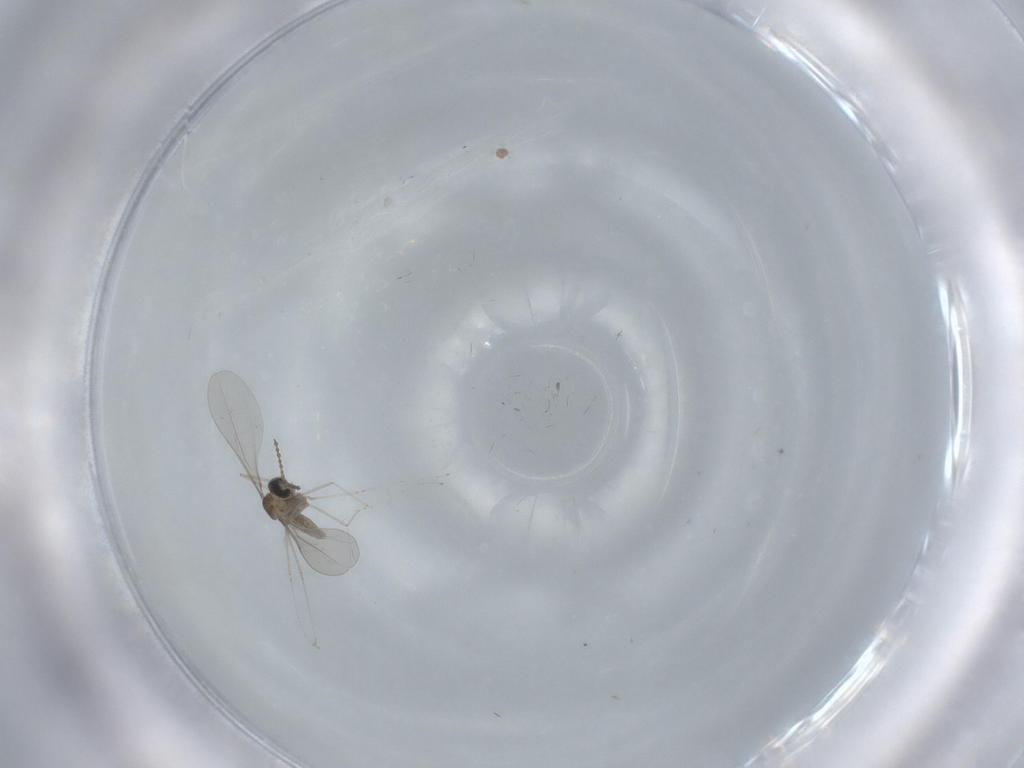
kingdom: Animalia
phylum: Arthropoda
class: Insecta
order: Diptera
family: Cecidomyiidae
